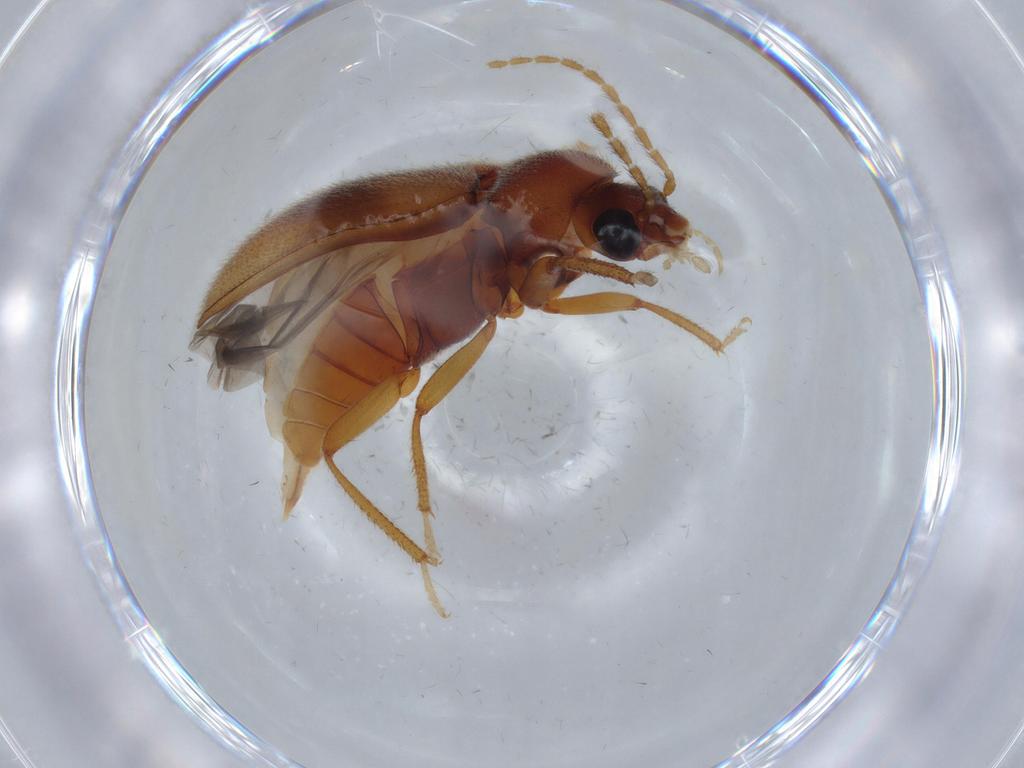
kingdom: Animalia
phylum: Arthropoda
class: Insecta
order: Coleoptera
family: Ptilodactylidae
